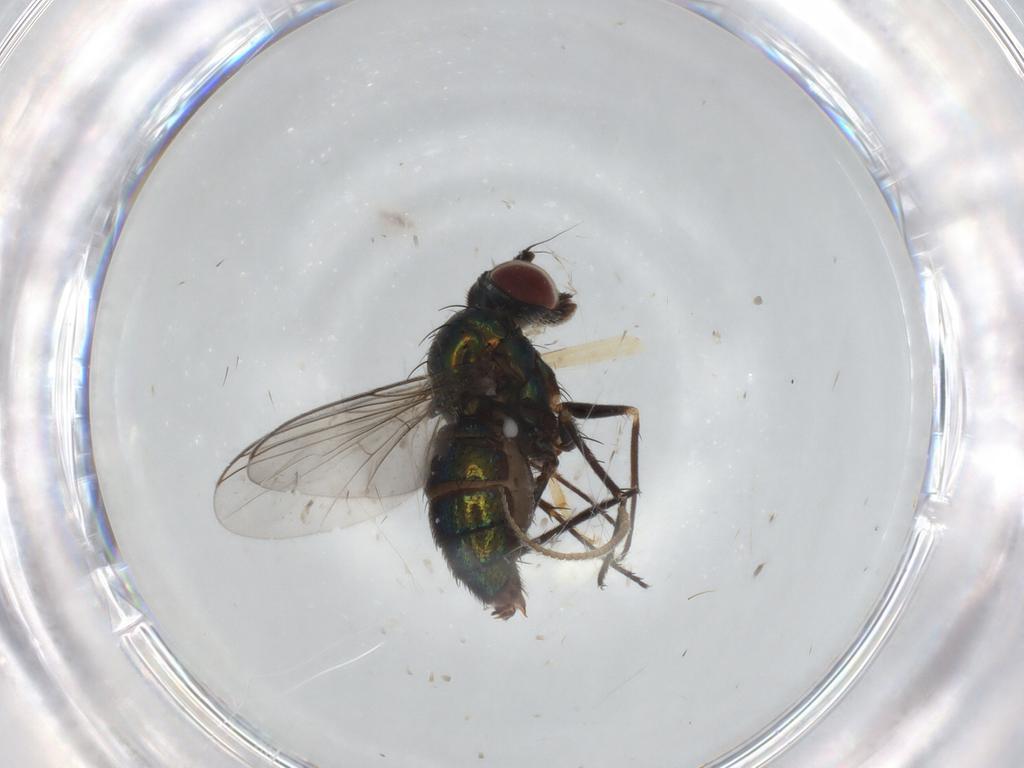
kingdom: Animalia
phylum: Arthropoda
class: Insecta
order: Diptera
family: Dolichopodidae
